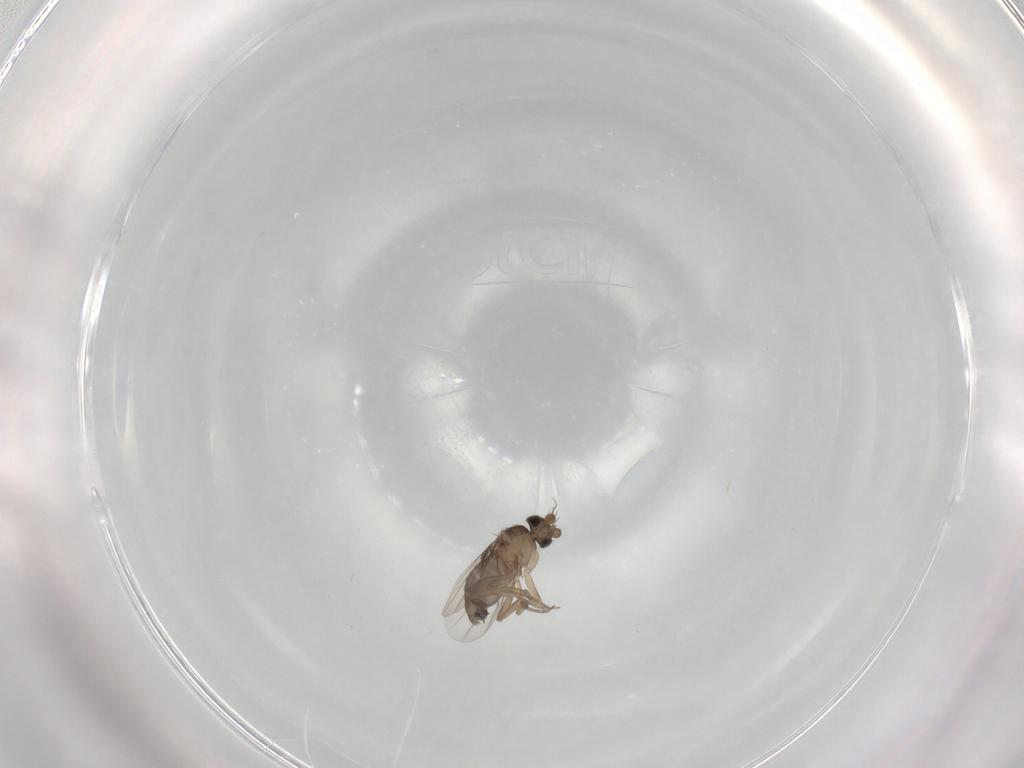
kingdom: Animalia
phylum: Arthropoda
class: Insecta
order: Diptera
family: Phoridae
